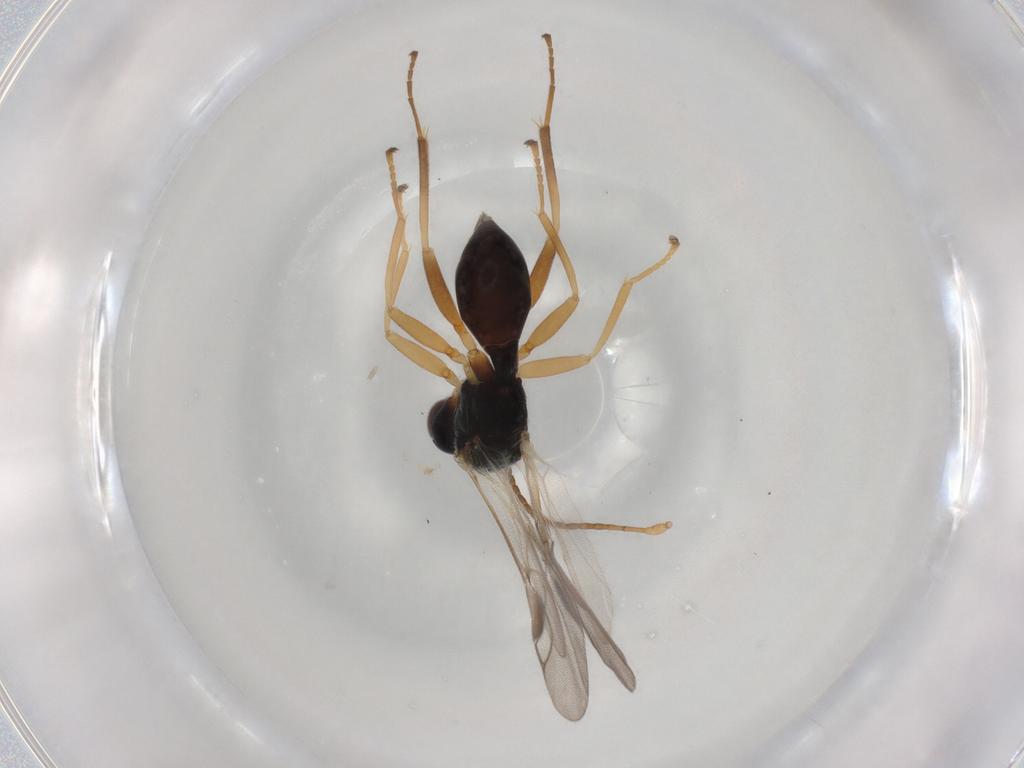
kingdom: Animalia
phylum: Arthropoda
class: Insecta
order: Hymenoptera
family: Braconidae
